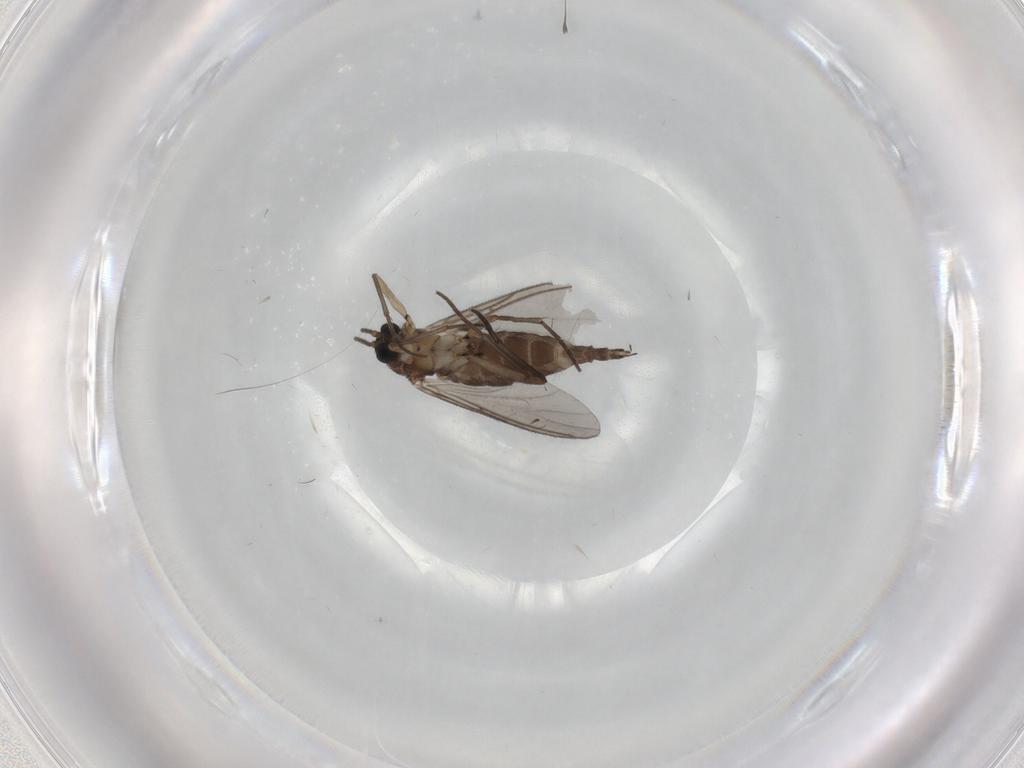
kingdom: Animalia
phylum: Arthropoda
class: Insecta
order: Diptera
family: Sciaridae
